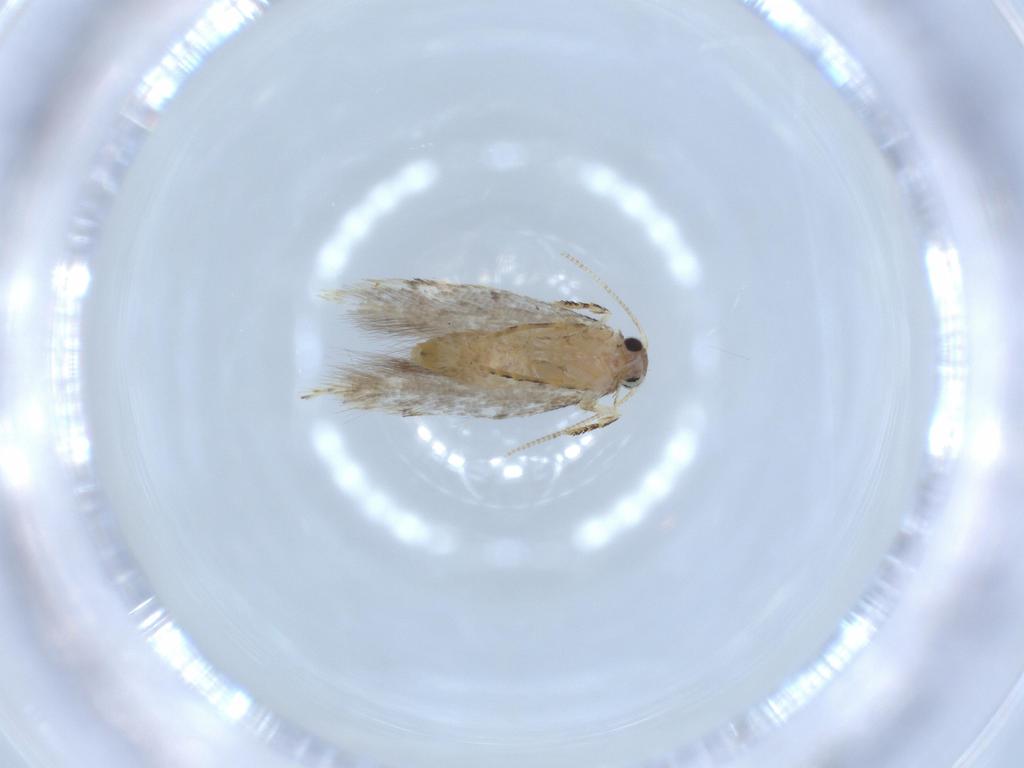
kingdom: Animalia
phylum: Arthropoda
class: Insecta
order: Lepidoptera
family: Tineidae
